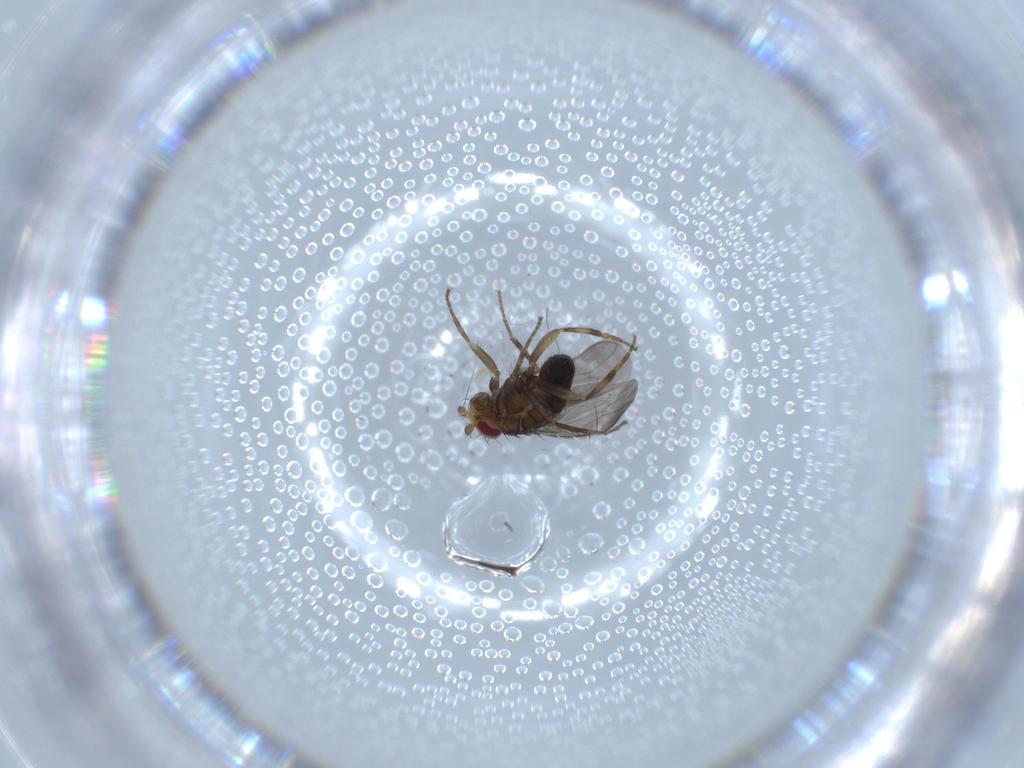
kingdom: Animalia
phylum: Arthropoda
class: Insecta
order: Diptera
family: Sphaeroceridae
